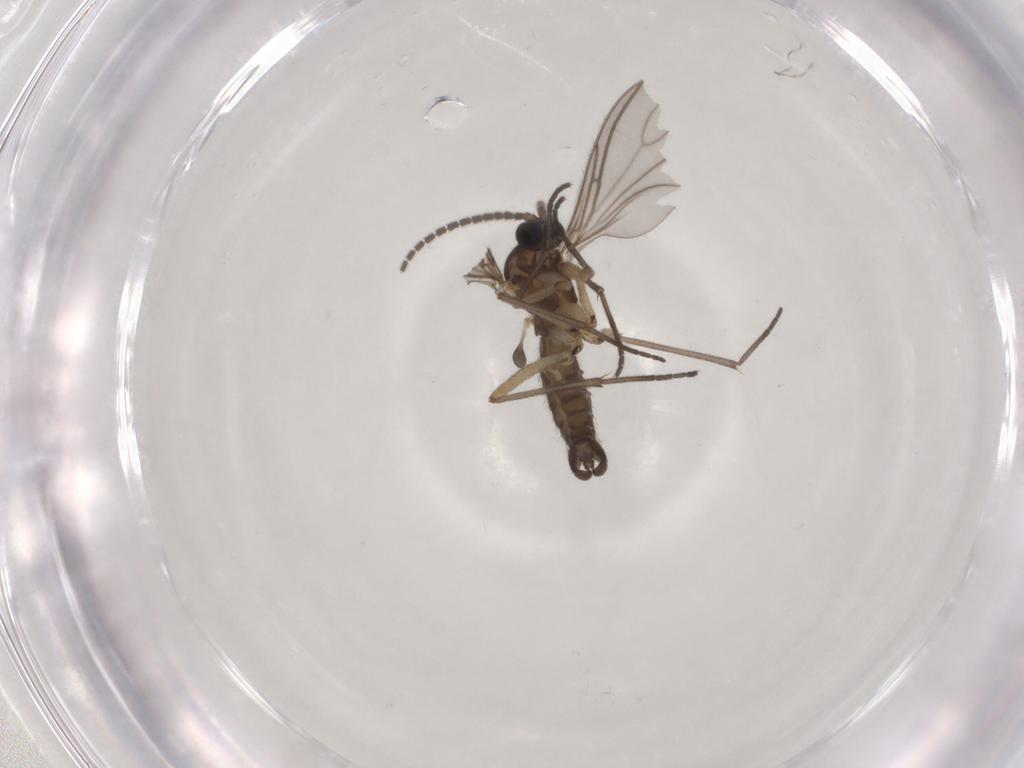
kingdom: Animalia
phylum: Arthropoda
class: Insecta
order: Diptera
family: Sciaridae
